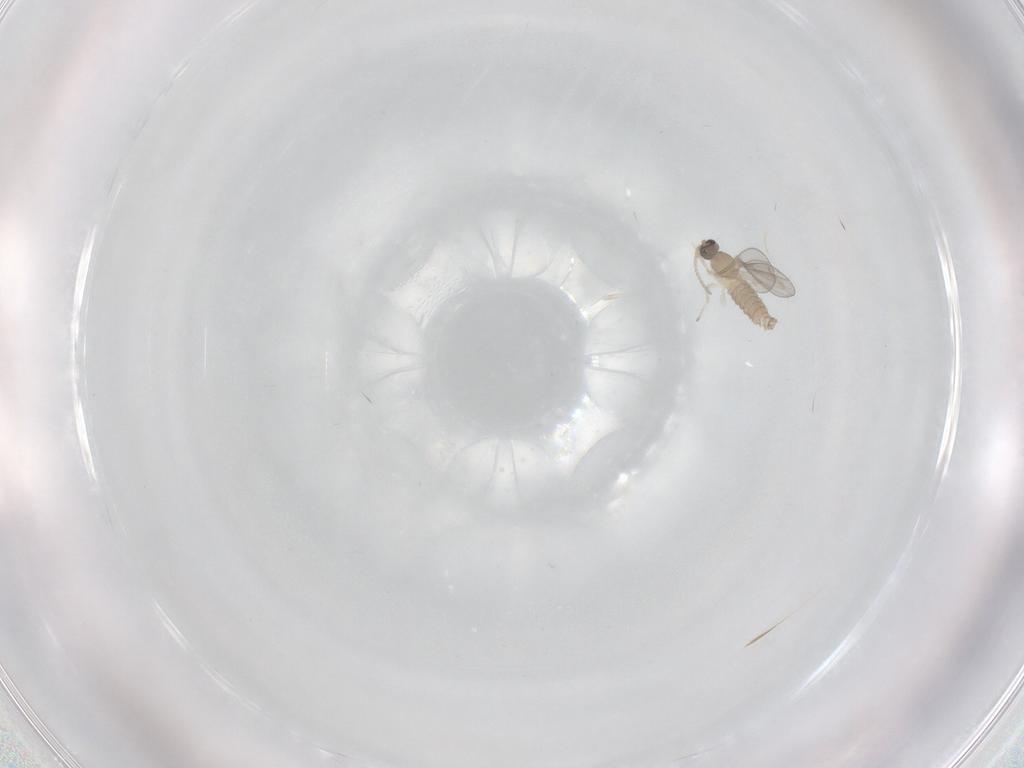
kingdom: Animalia
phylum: Arthropoda
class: Insecta
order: Diptera
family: Cecidomyiidae
